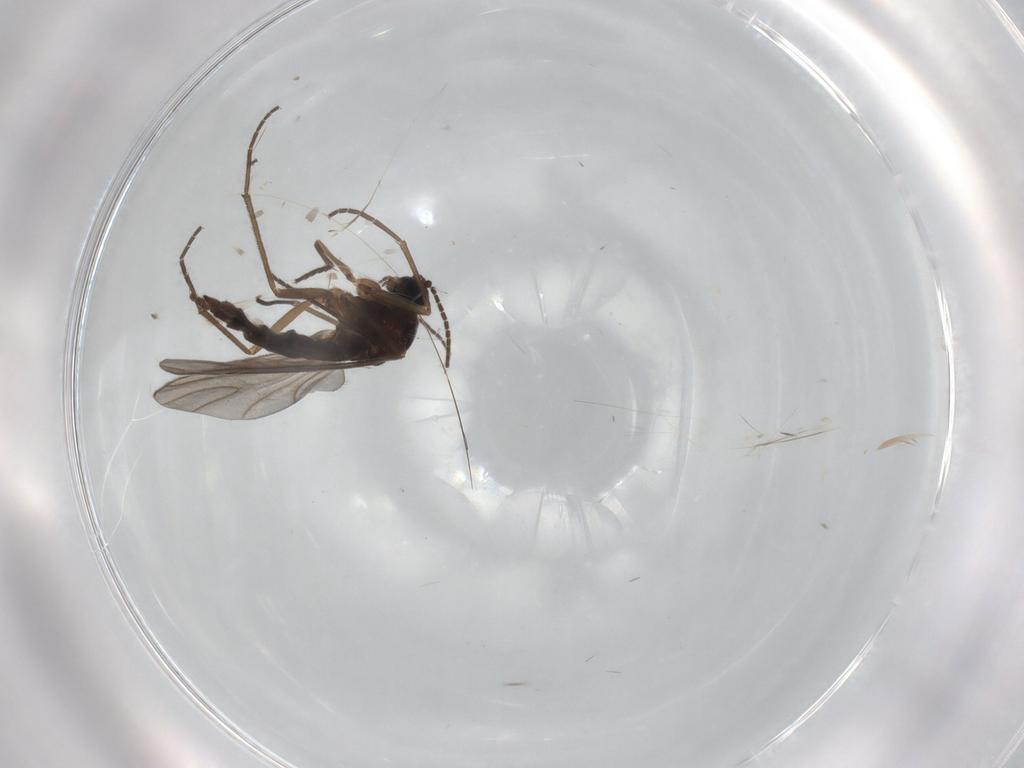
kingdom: Animalia
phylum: Arthropoda
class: Insecta
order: Diptera
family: Sciaridae
